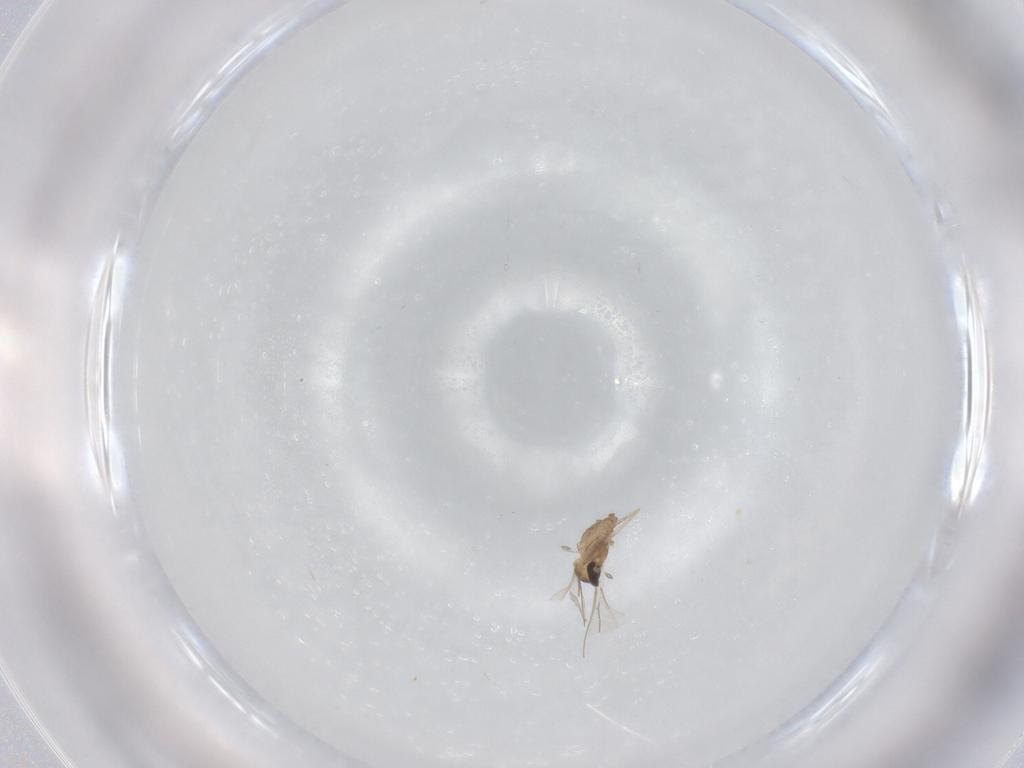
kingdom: Animalia
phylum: Arthropoda
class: Insecta
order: Diptera
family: Cecidomyiidae
